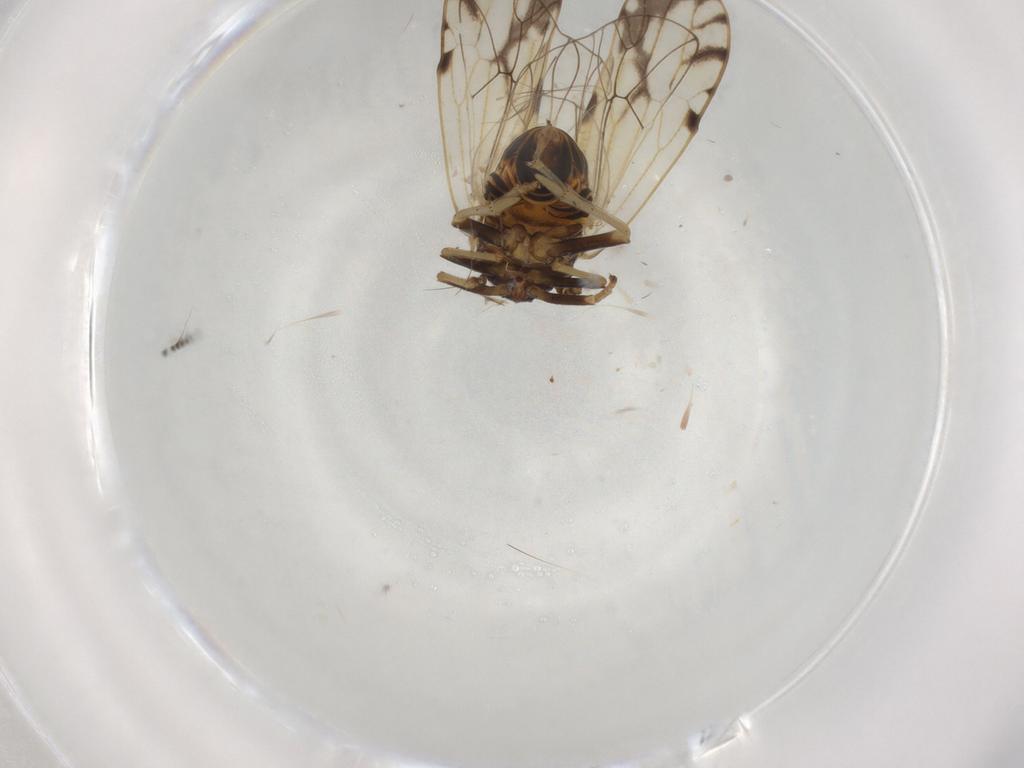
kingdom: Animalia
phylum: Arthropoda
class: Insecta
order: Hemiptera
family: Delphacidae
